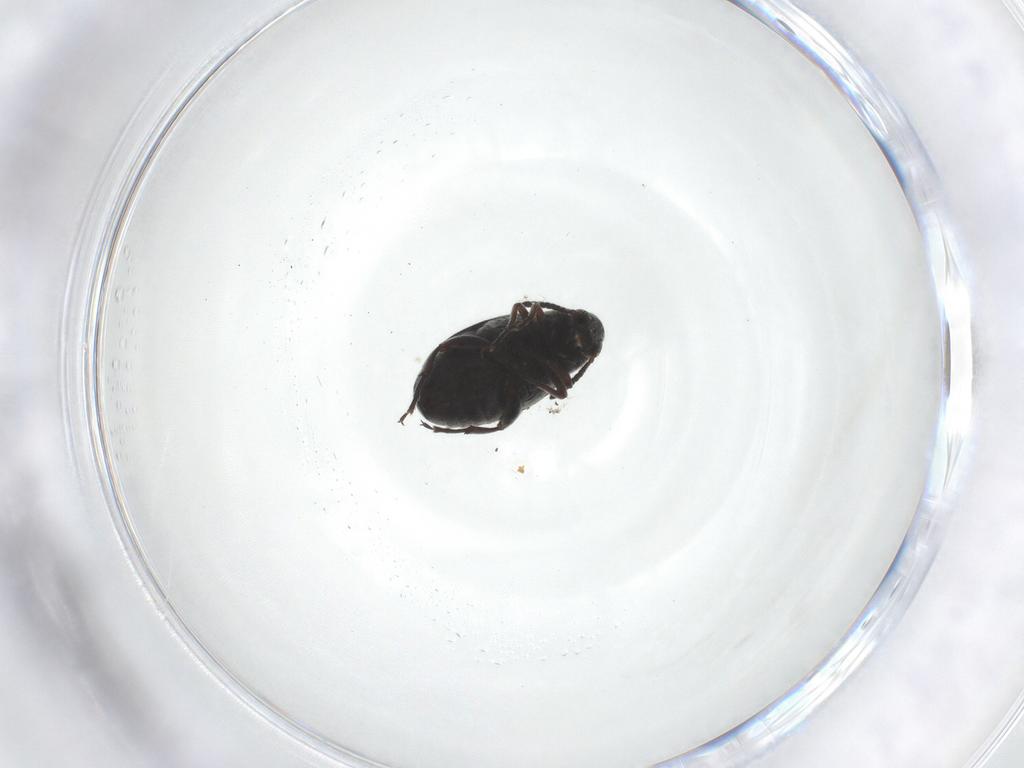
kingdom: Animalia
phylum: Arthropoda
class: Insecta
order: Coleoptera
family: Chrysomelidae
